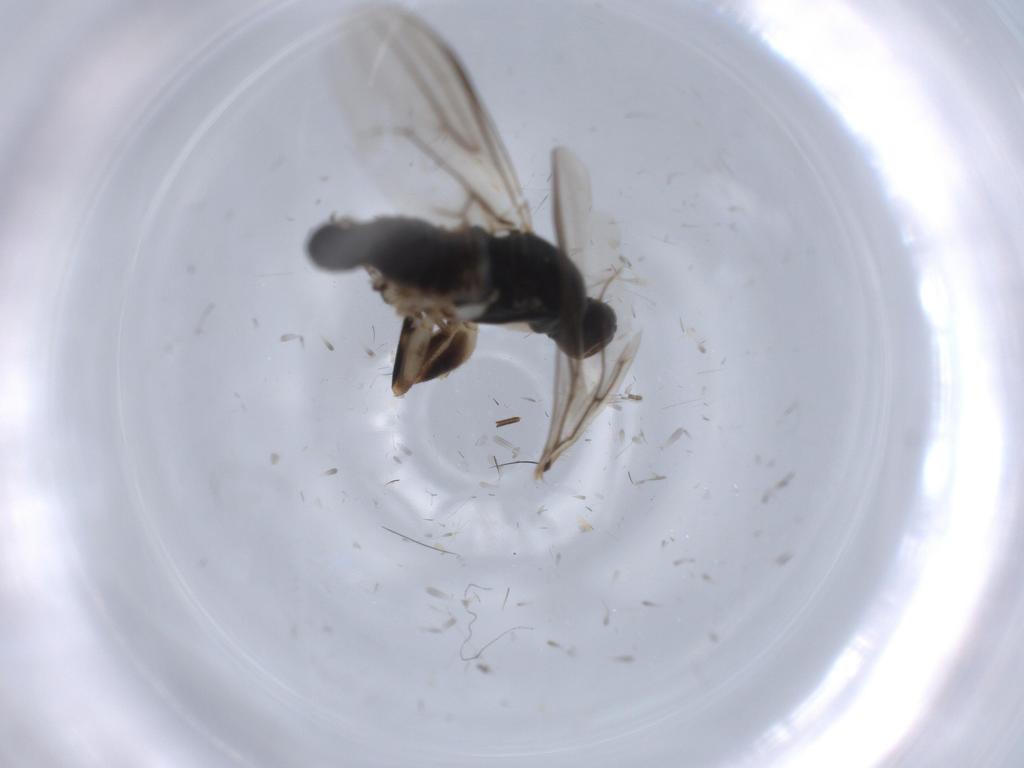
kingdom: Animalia
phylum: Arthropoda
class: Insecta
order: Diptera
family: Cecidomyiidae
